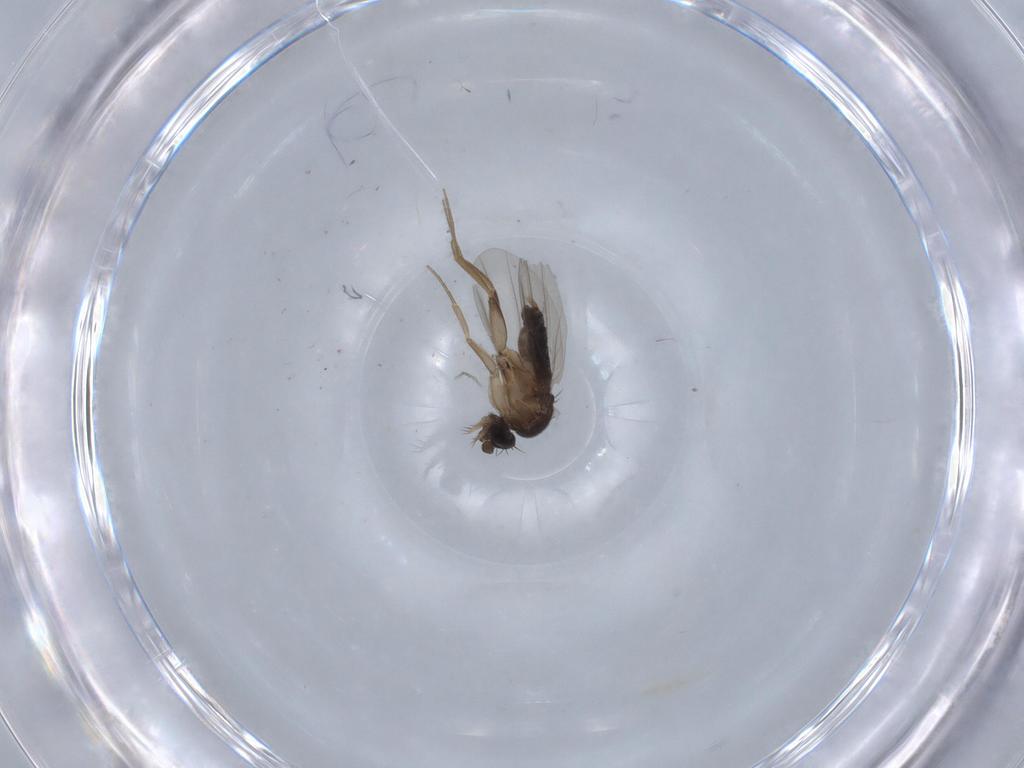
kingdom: Animalia
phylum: Arthropoda
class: Insecta
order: Diptera
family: Phoridae
